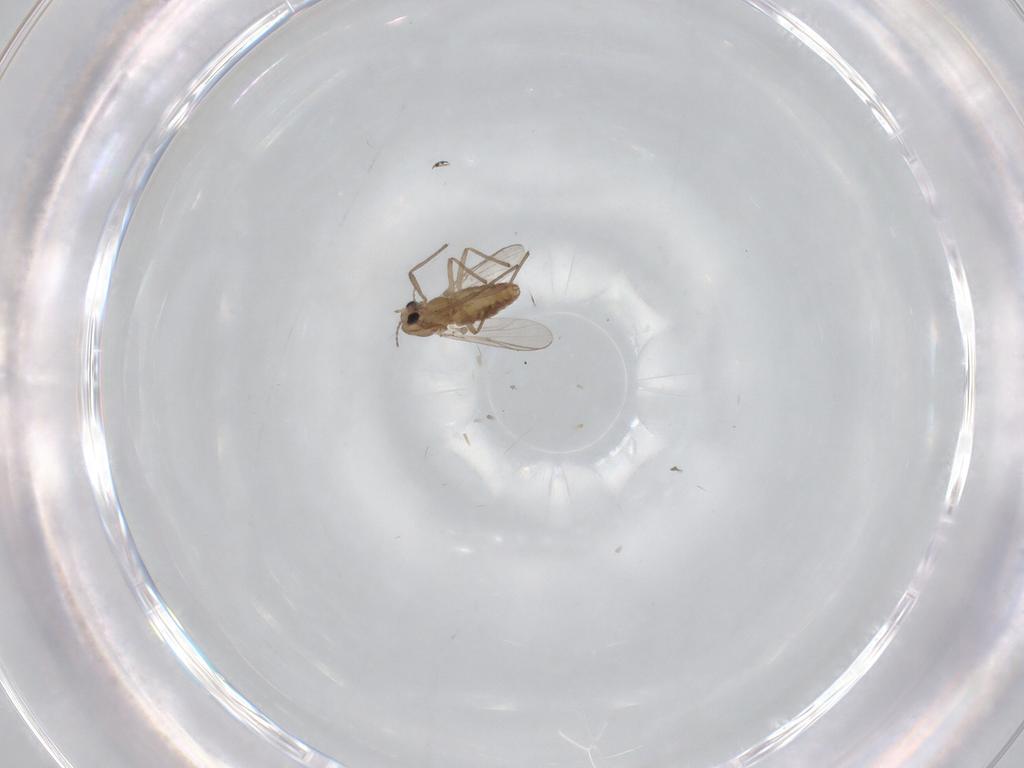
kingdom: Animalia
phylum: Arthropoda
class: Insecta
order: Diptera
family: Chironomidae
